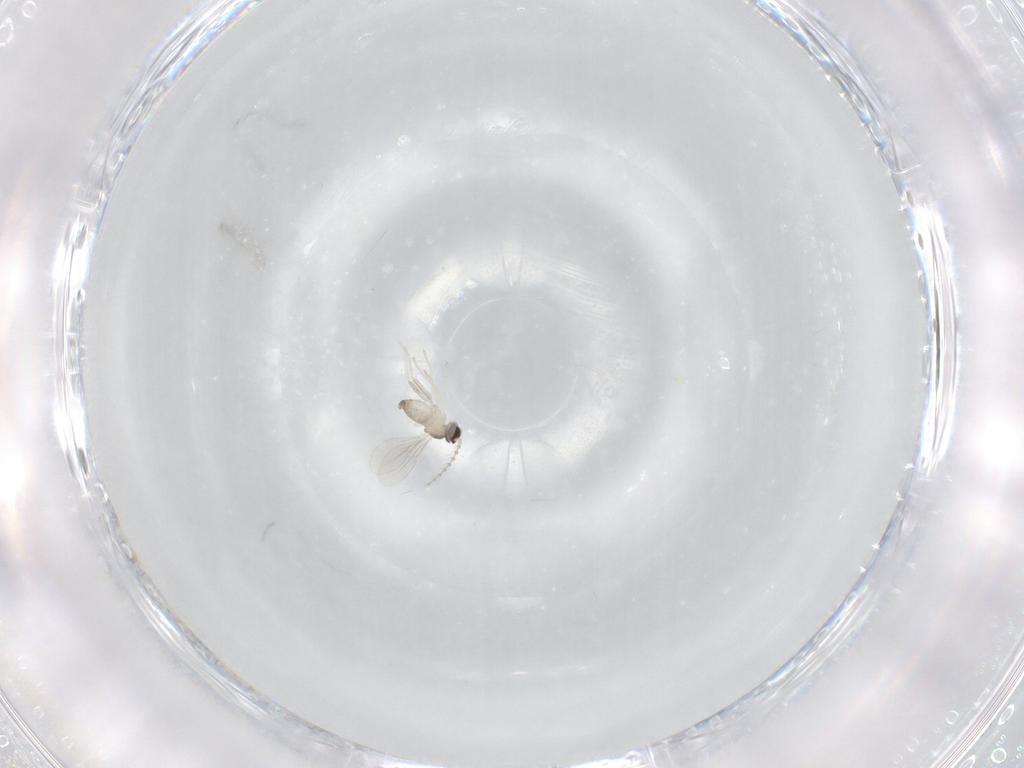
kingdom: Animalia
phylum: Arthropoda
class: Insecta
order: Diptera
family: Cecidomyiidae
